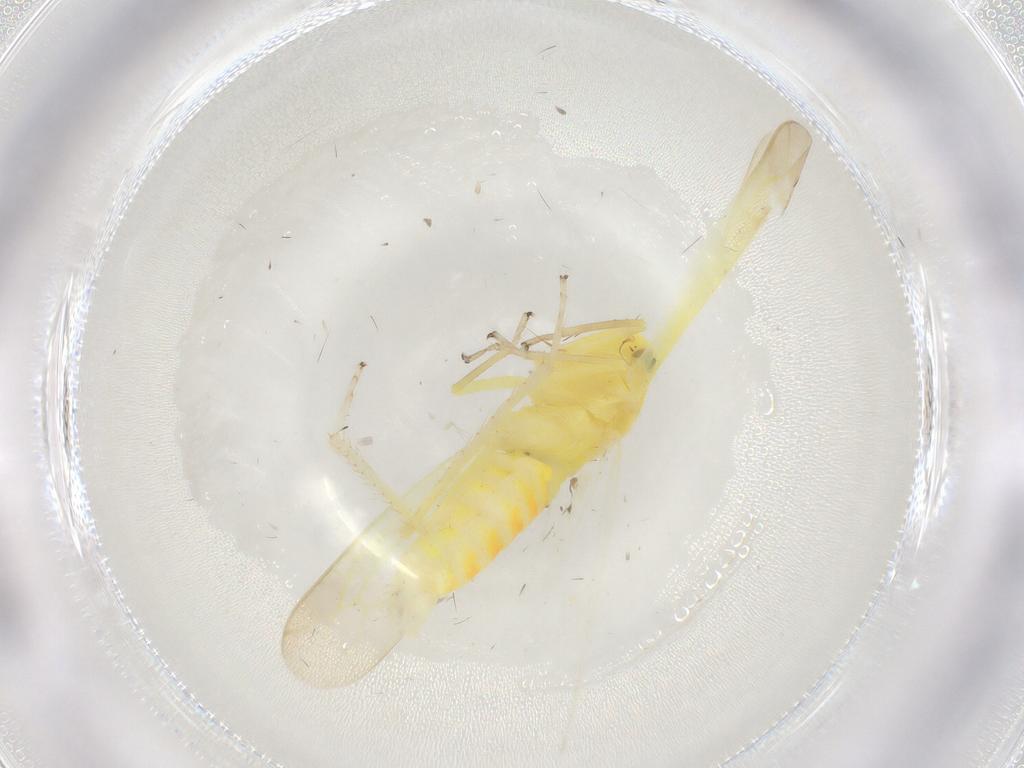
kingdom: Animalia
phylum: Arthropoda
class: Insecta
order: Hemiptera
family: Cicadellidae
